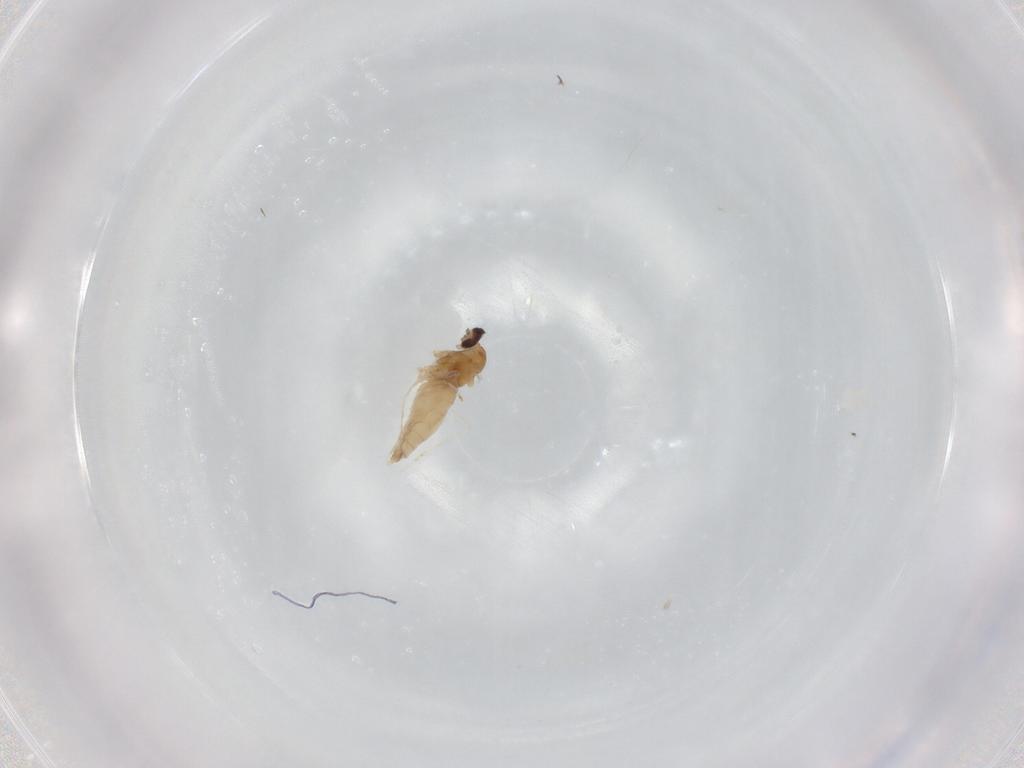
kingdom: Animalia
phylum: Arthropoda
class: Insecta
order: Diptera
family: Cecidomyiidae
